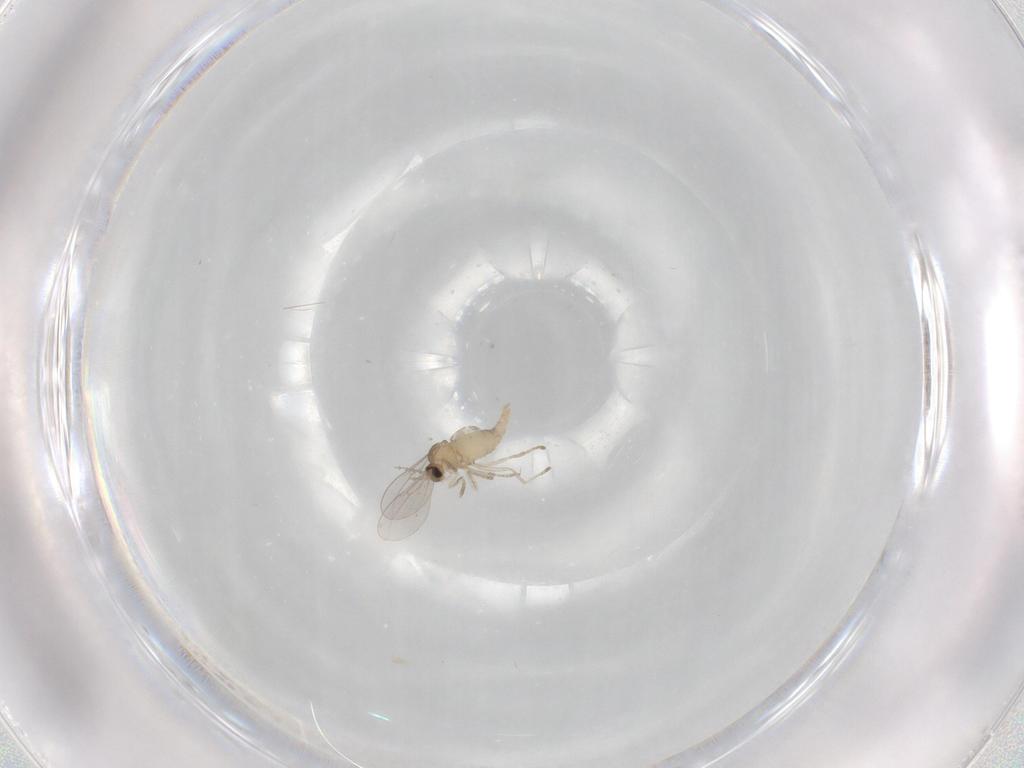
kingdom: Animalia
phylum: Arthropoda
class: Insecta
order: Diptera
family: Cecidomyiidae
